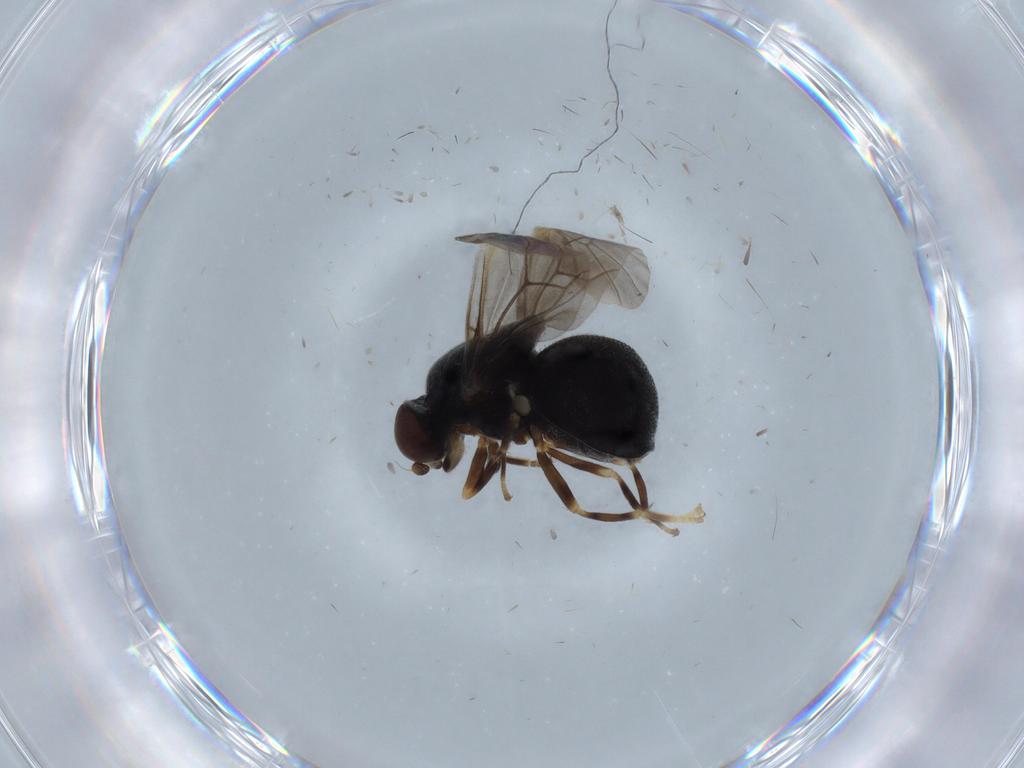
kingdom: Animalia
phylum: Arthropoda
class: Insecta
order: Diptera
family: Stratiomyidae
